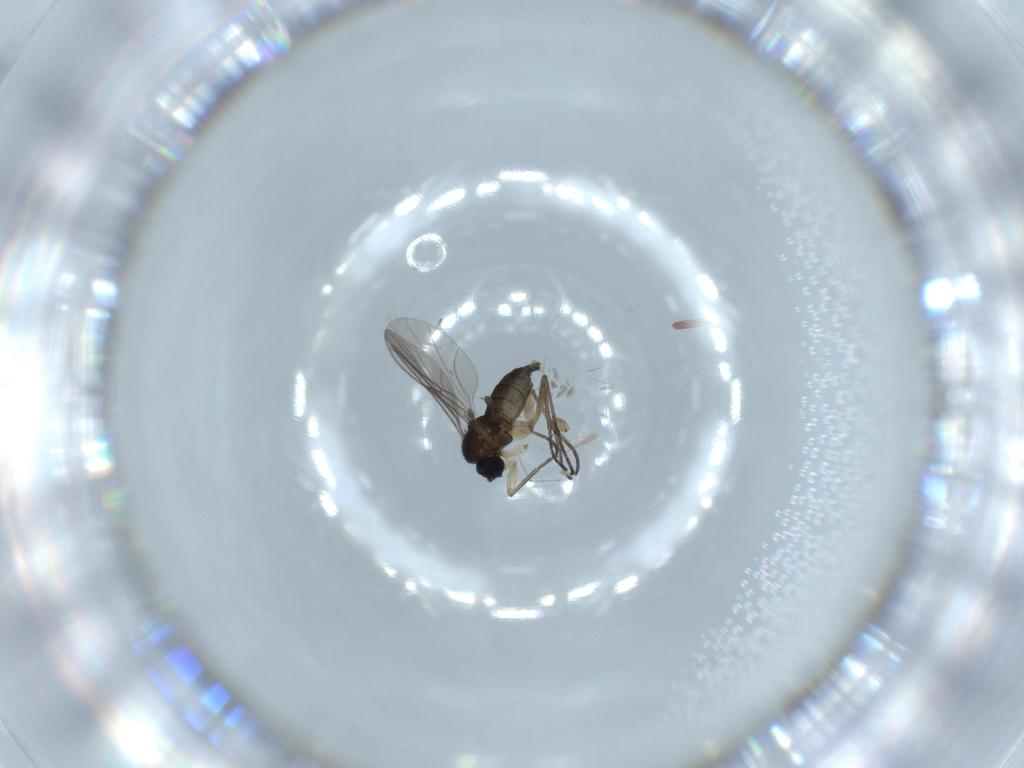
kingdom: Animalia
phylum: Arthropoda
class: Insecta
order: Diptera
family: Sciaridae
